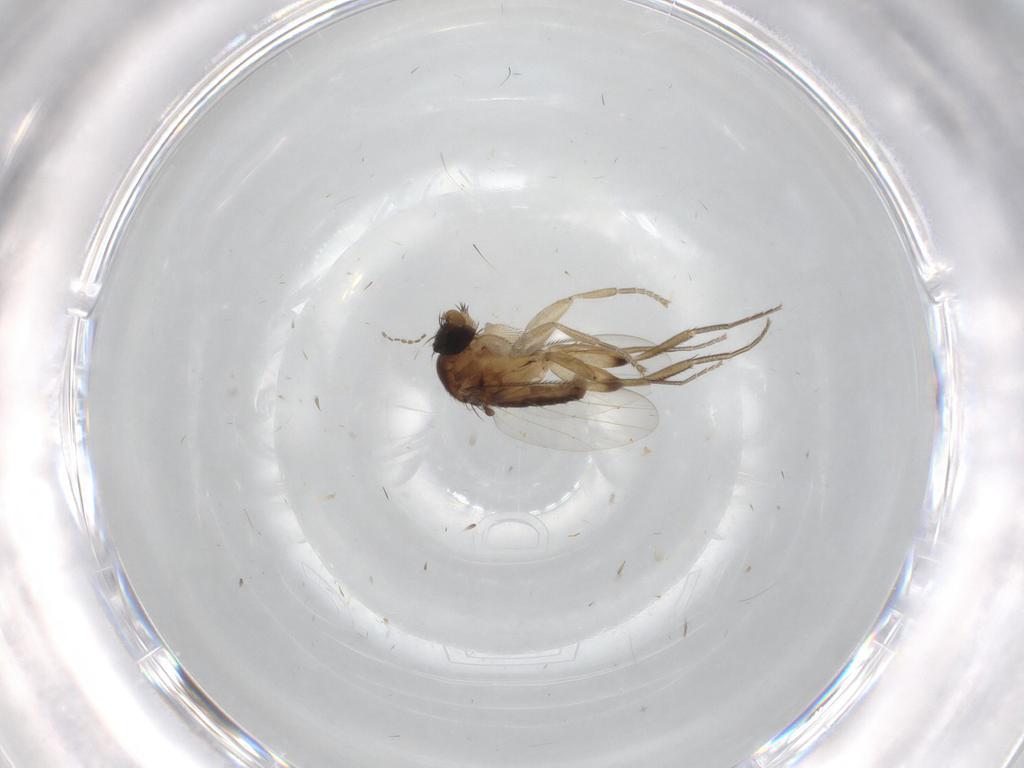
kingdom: Animalia
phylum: Arthropoda
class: Insecta
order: Diptera
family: Phoridae
